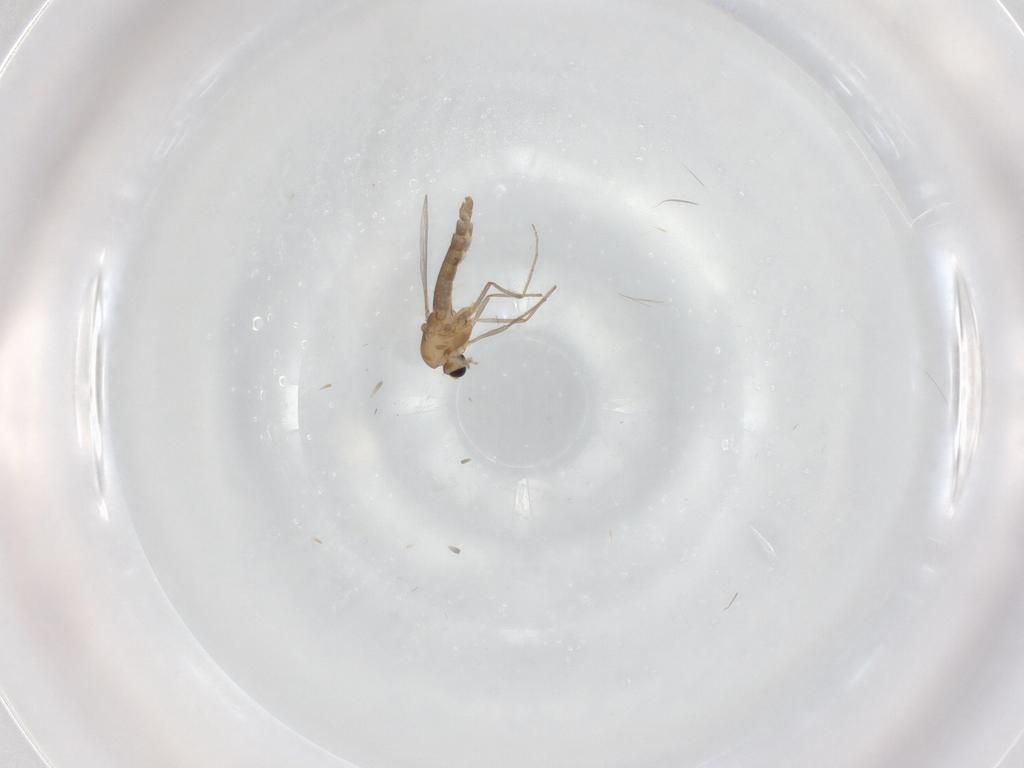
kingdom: Animalia
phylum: Arthropoda
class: Insecta
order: Diptera
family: Chironomidae
